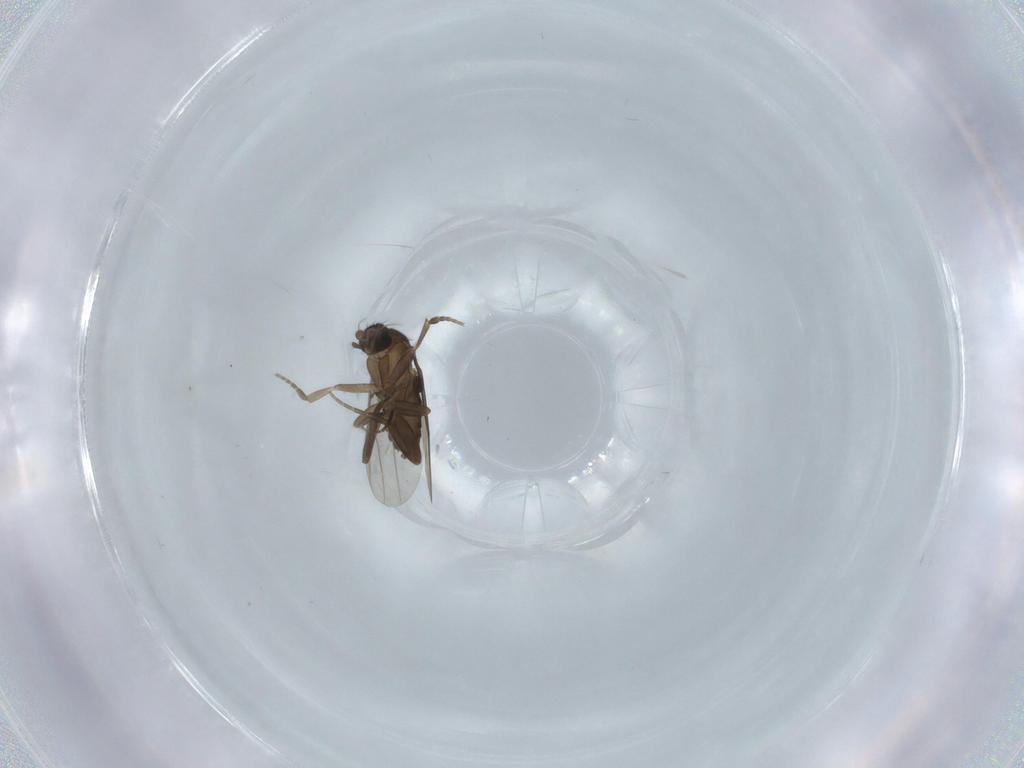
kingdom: Animalia
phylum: Arthropoda
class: Insecta
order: Diptera
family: Phoridae
